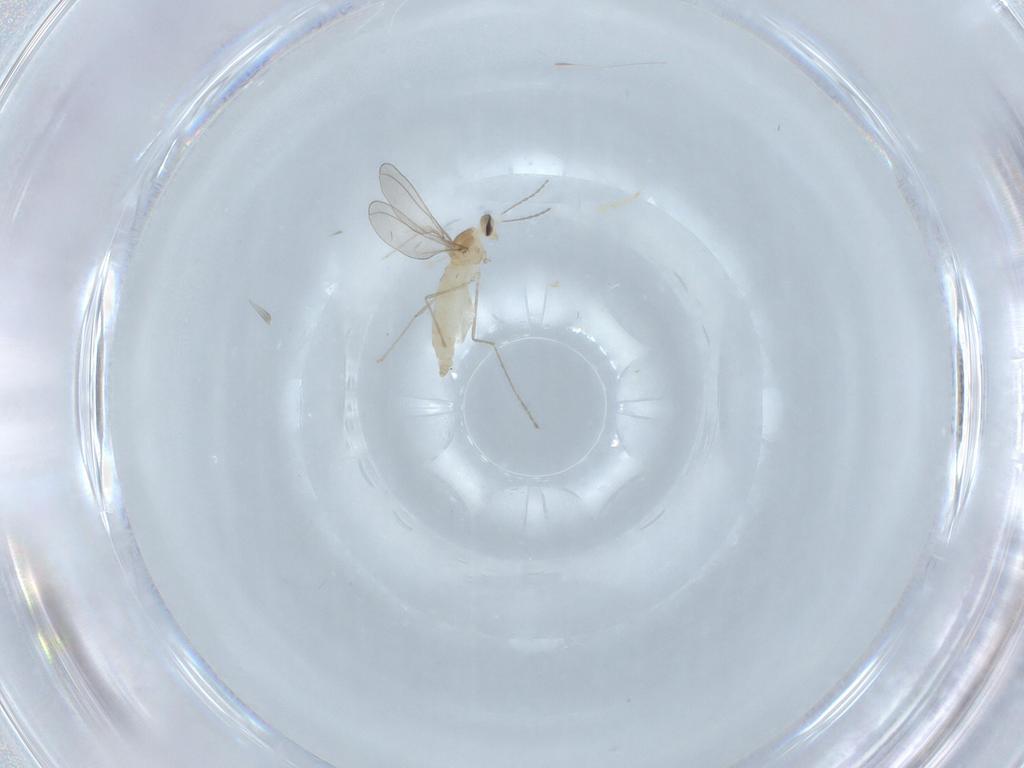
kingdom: Animalia
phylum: Arthropoda
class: Insecta
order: Diptera
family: Cecidomyiidae
